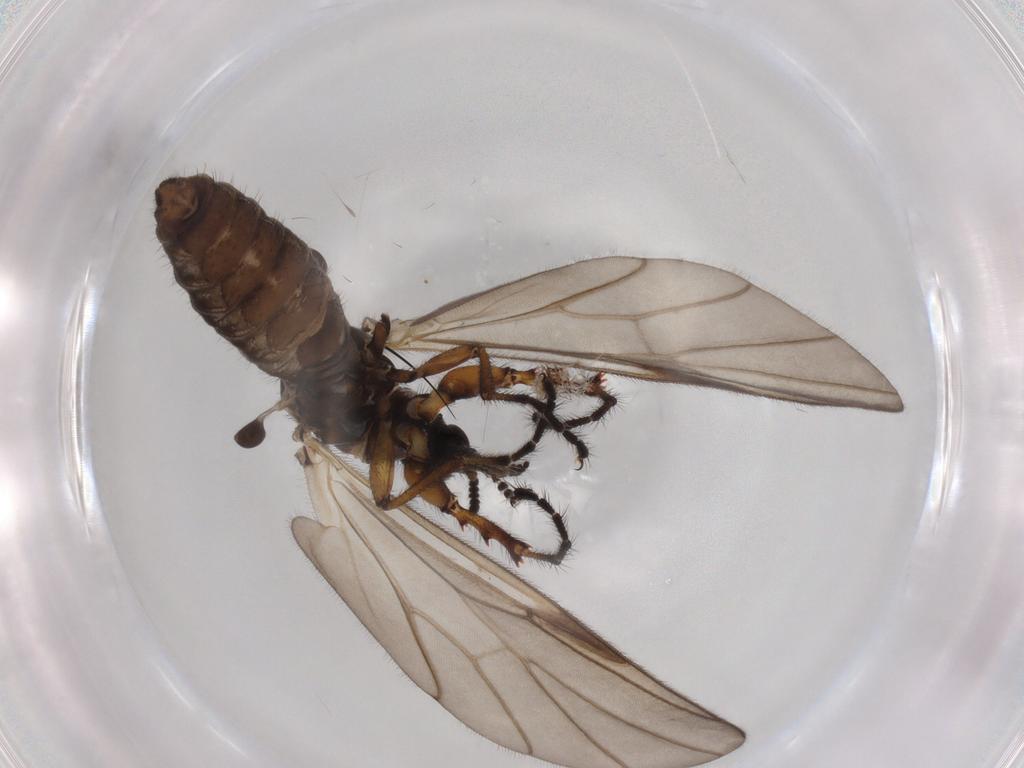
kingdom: Animalia
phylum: Arthropoda
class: Insecta
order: Diptera
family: Bibionidae
